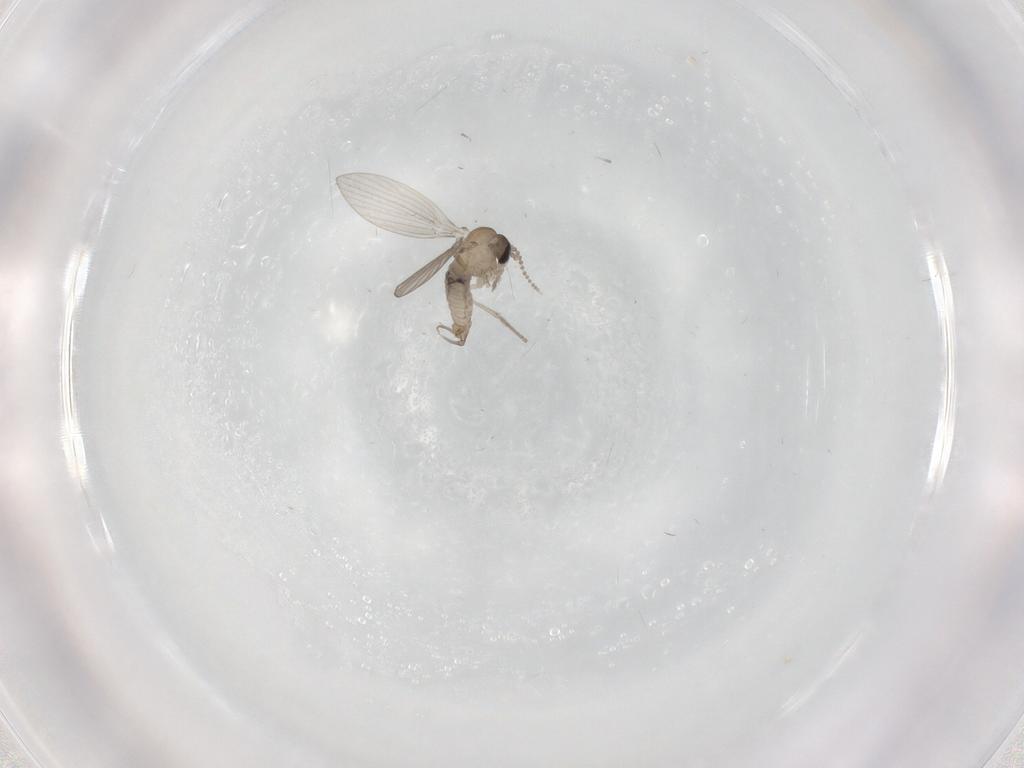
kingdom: Animalia
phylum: Arthropoda
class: Insecta
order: Diptera
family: Psychodidae
